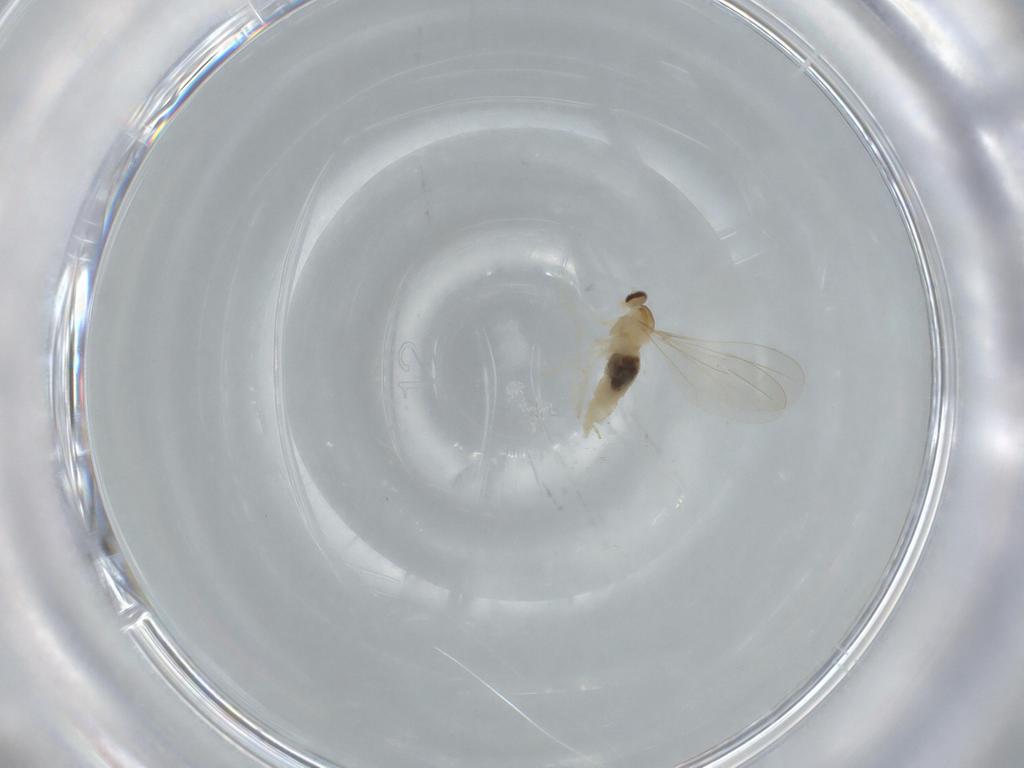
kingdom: Animalia
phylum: Arthropoda
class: Insecta
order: Diptera
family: Cecidomyiidae
